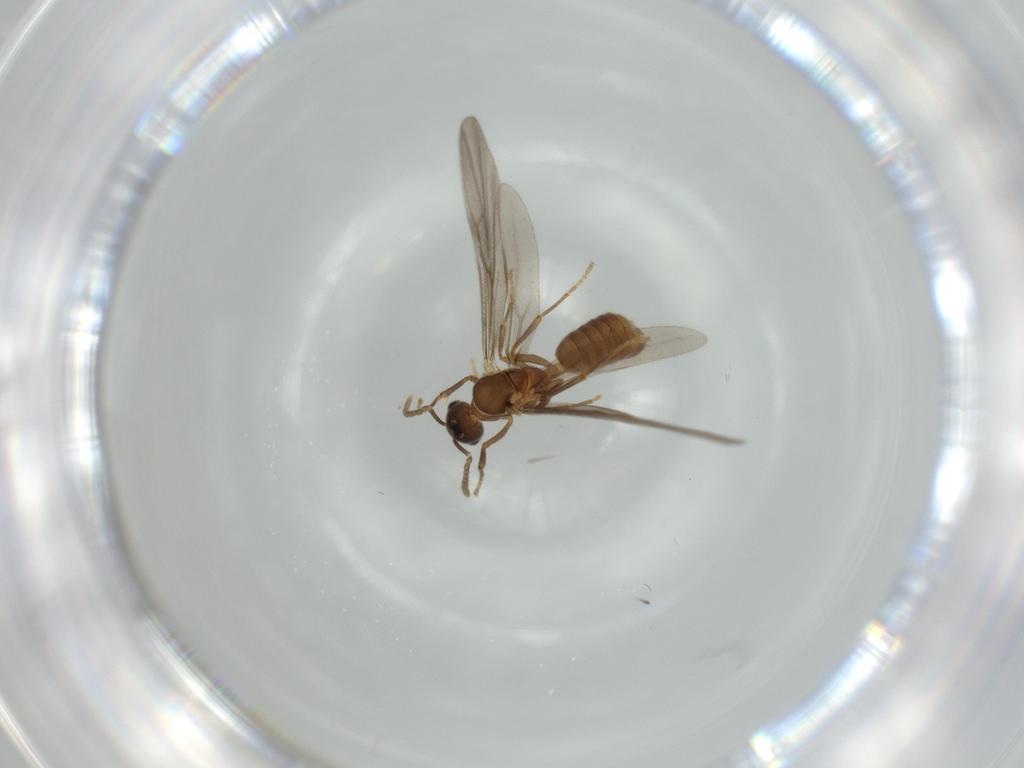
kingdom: Animalia
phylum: Arthropoda
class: Insecta
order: Hymenoptera
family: Formicidae
